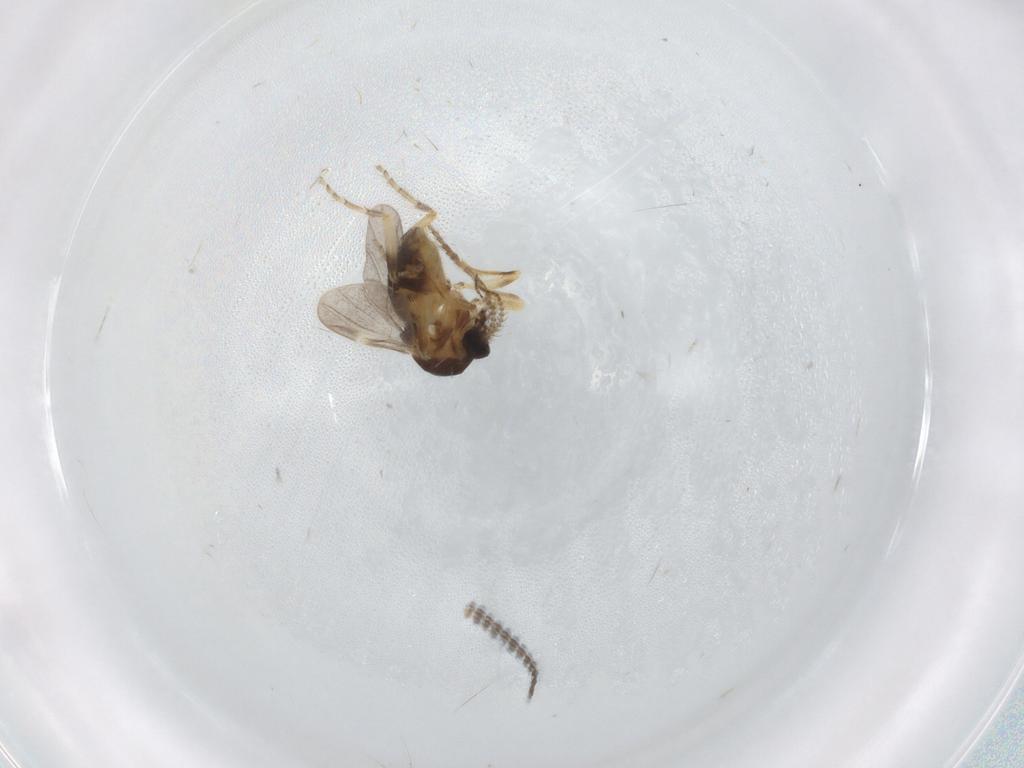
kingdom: Animalia
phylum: Arthropoda
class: Insecta
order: Diptera
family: Ceratopogonidae
